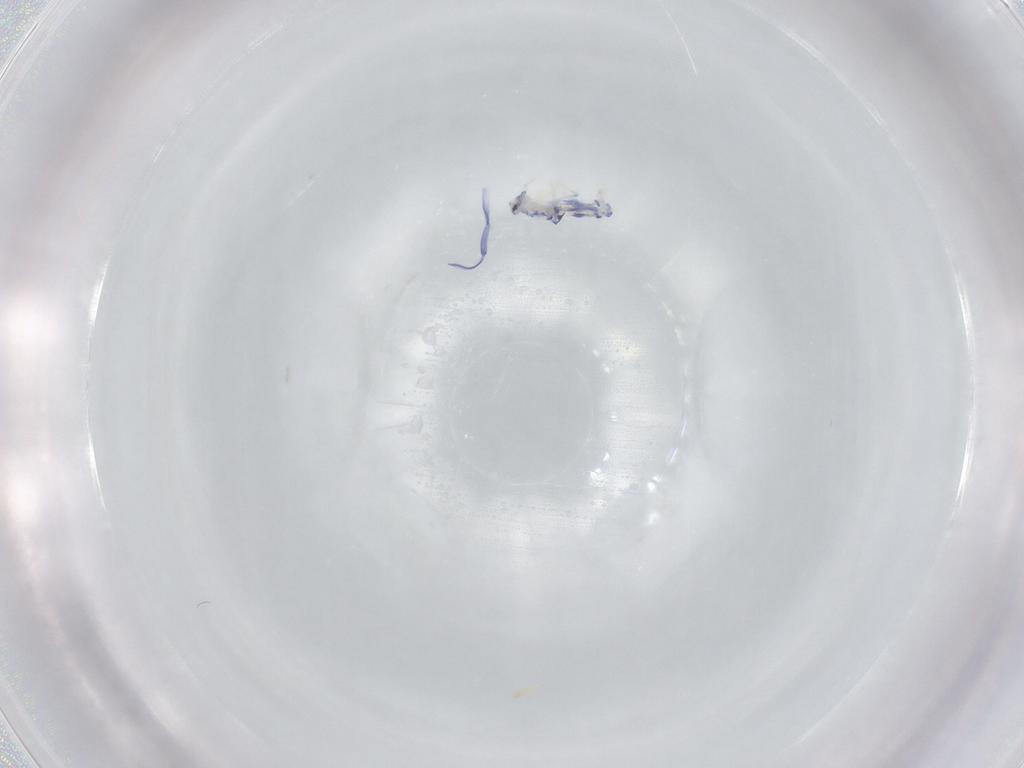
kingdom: Animalia
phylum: Arthropoda
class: Collembola
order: Entomobryomorpha
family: Entomobryidae
